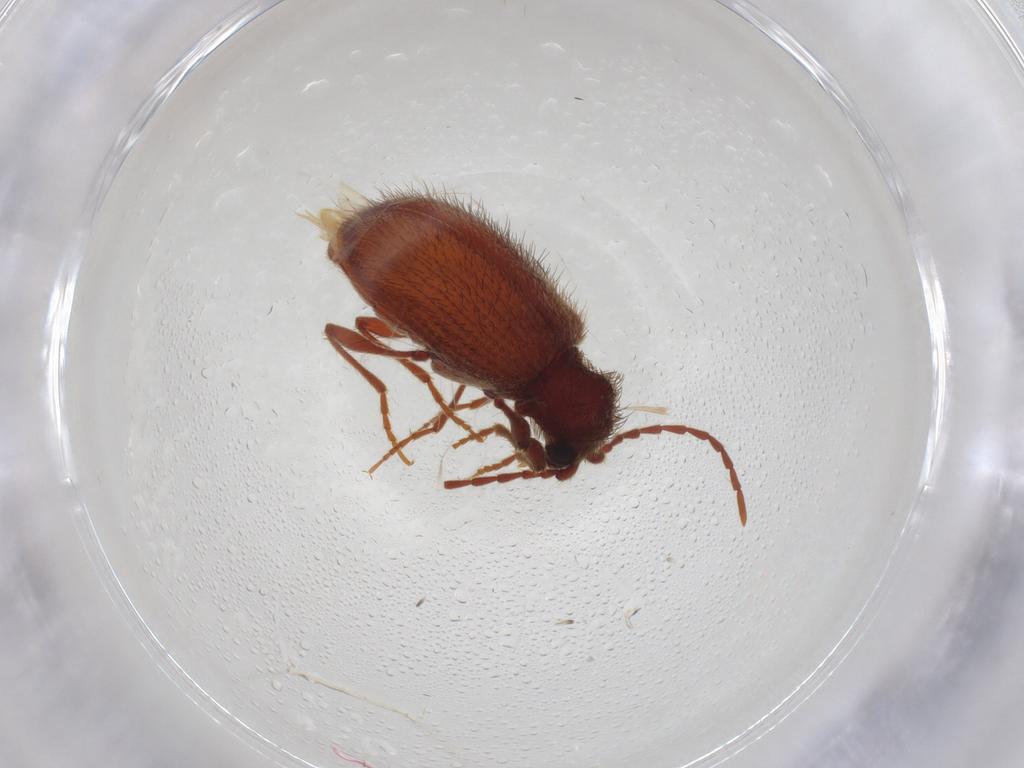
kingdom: Animalia
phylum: Arthropoda
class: Insecta
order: Coleoptera
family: Ptinidae
